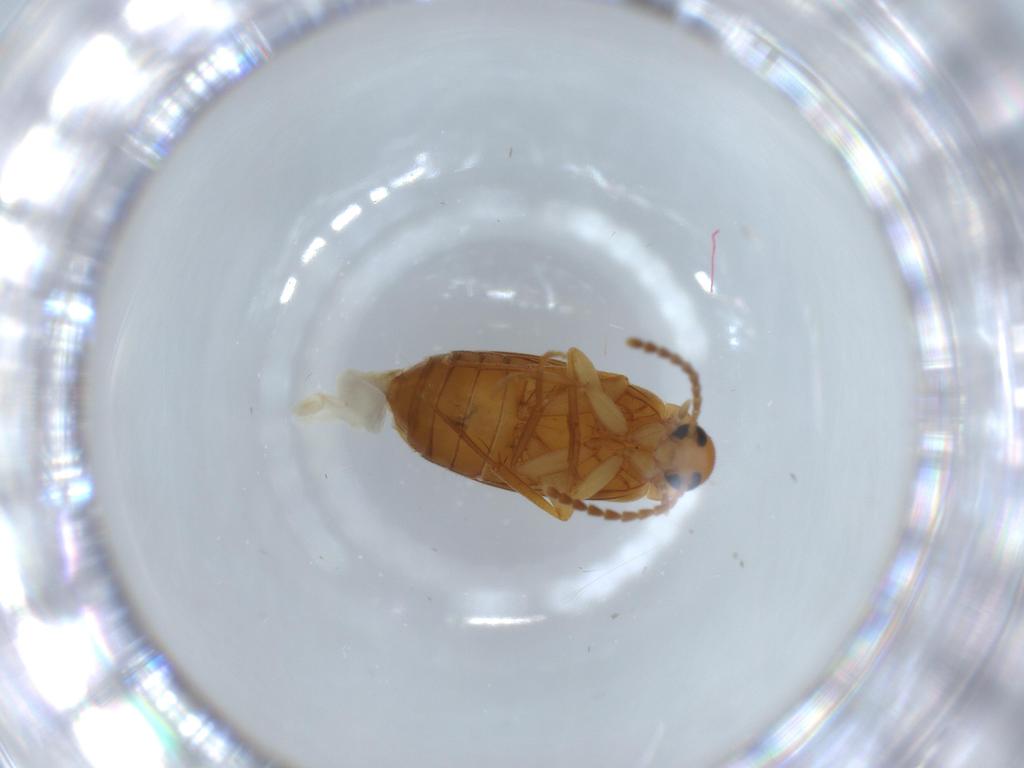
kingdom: Animalia
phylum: Arthropoda
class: Insecta
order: Coleoptera
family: Scraptiidae
